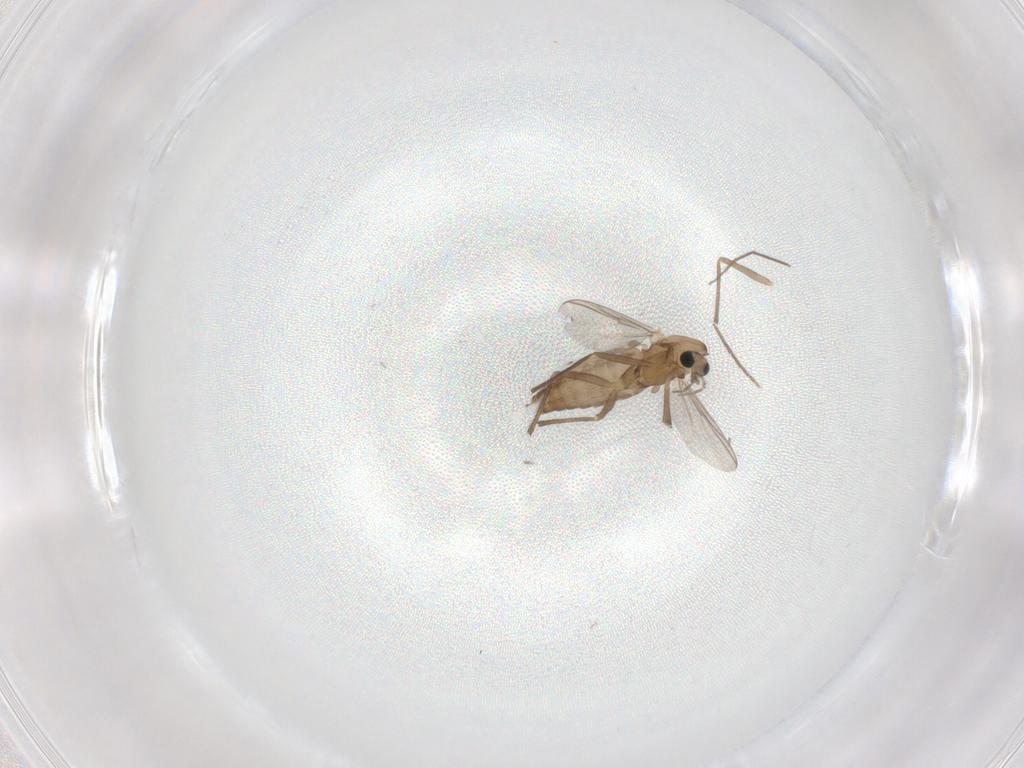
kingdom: Animalia
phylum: Arthropoda
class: Insecta
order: Diptera
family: Chironomidae
